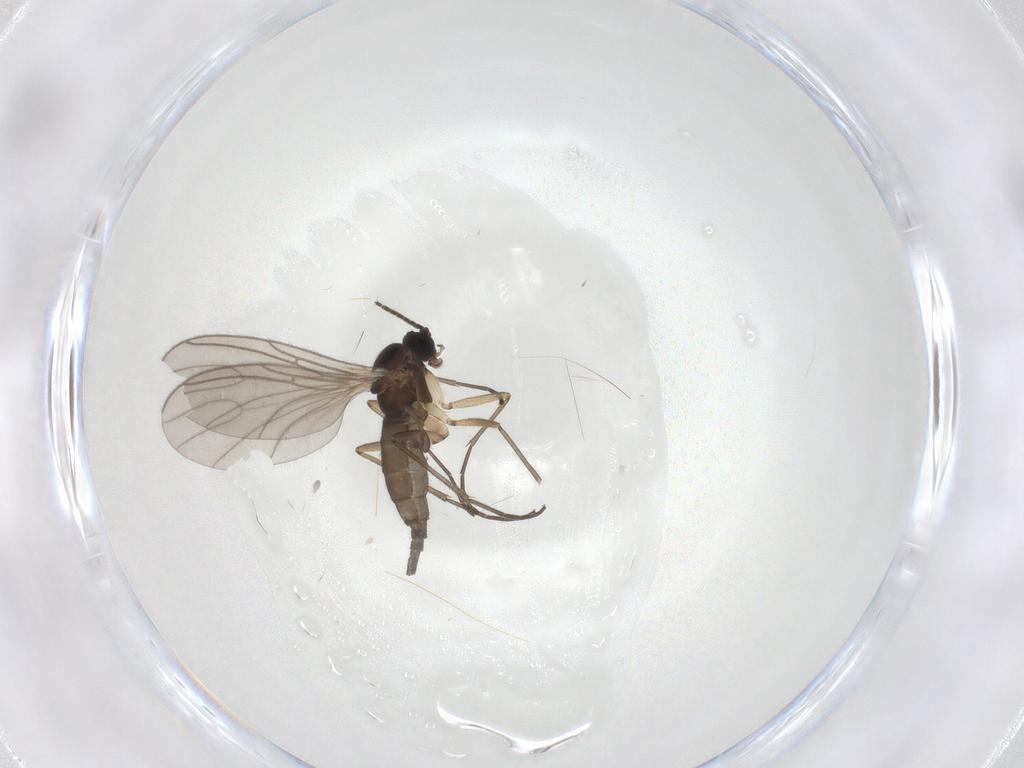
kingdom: Animalia
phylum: Arthropoda
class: Insecta
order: Diptera
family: Sciaridae
